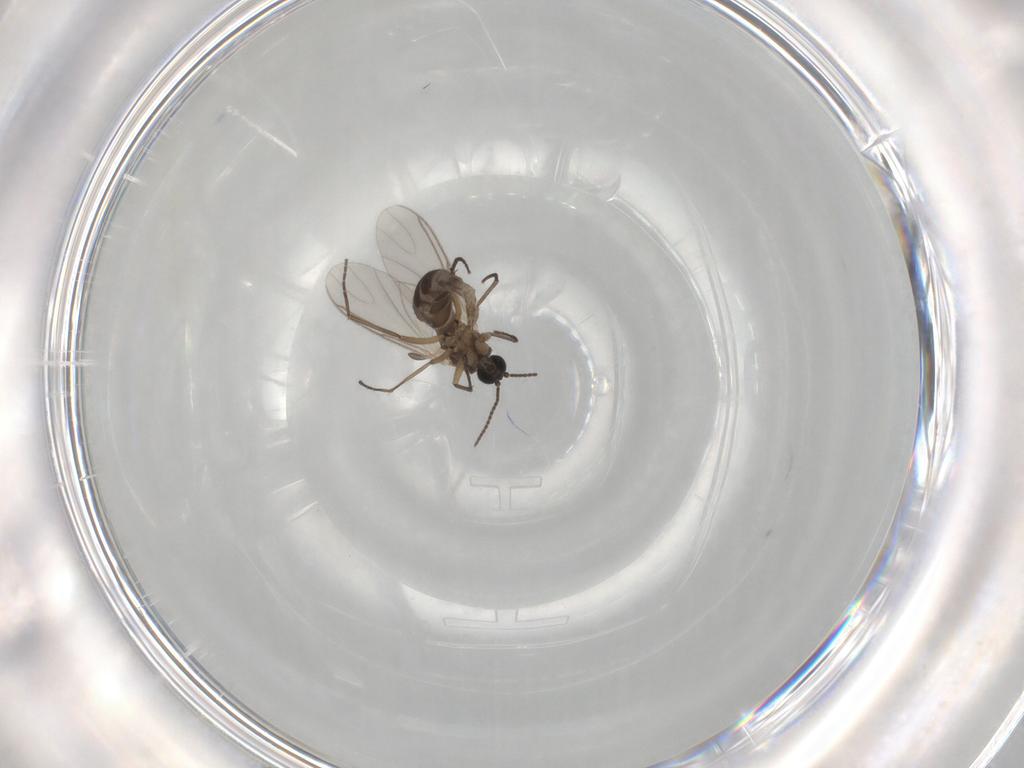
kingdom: Animalia
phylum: Arthropoda
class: Insecta
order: Diptera
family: Sciaridae
